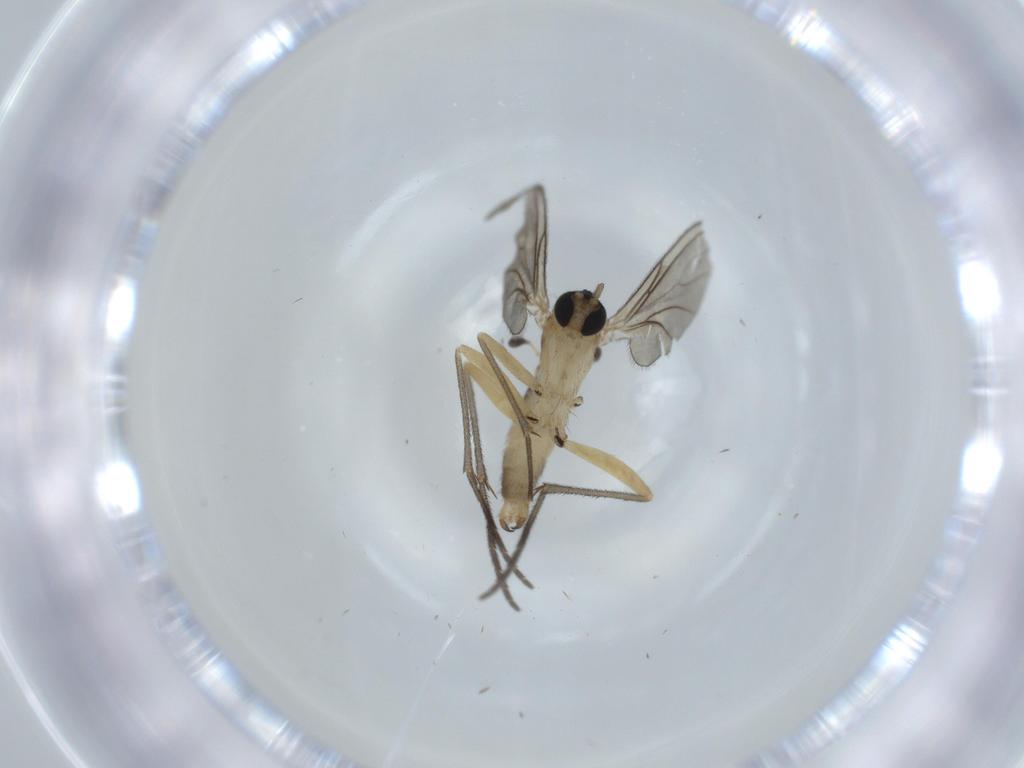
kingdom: Animalia
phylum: Arthropoda
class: Insecta
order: Diptera
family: Sciaridae
